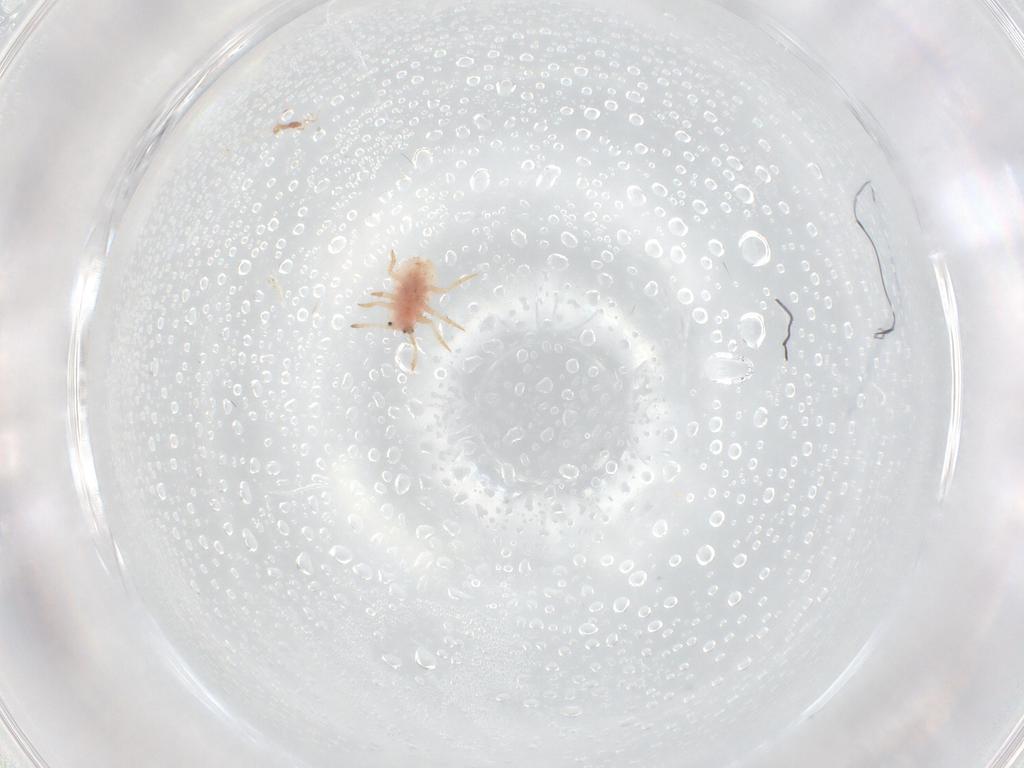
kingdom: Animalia
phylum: Arthropoda
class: Insecta
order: Hemiptera
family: Coccoidea_incertae_sedis
